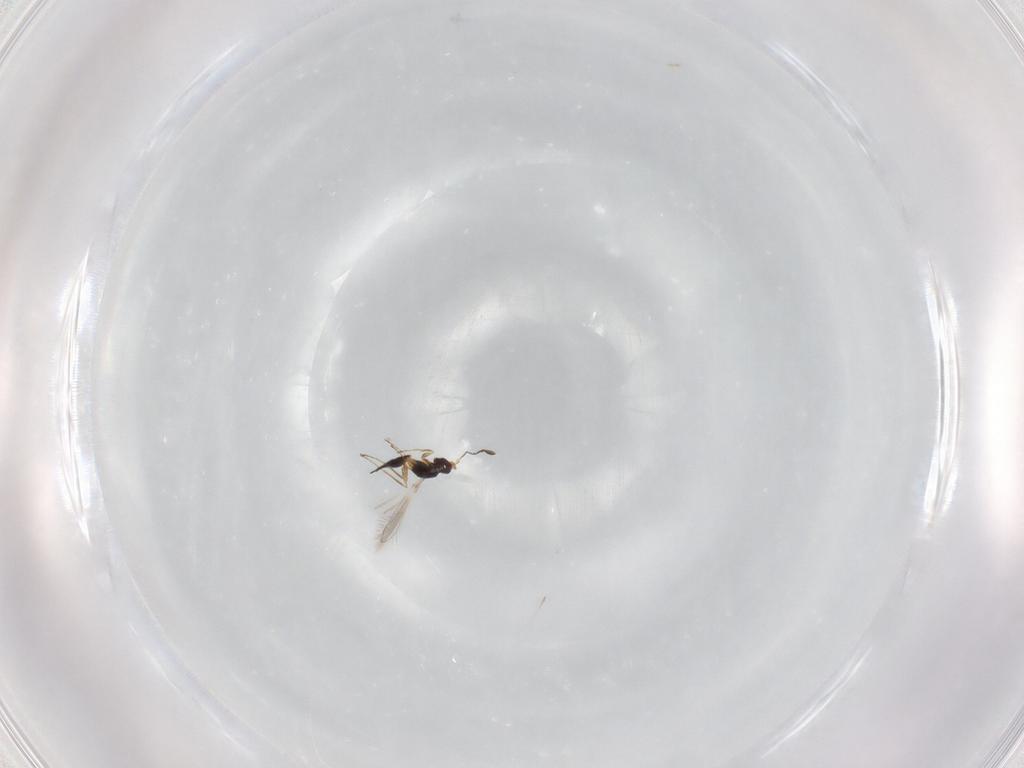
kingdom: Animalia
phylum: Arthropoda
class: Insecta
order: Hymenoptera
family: Mymaridae
